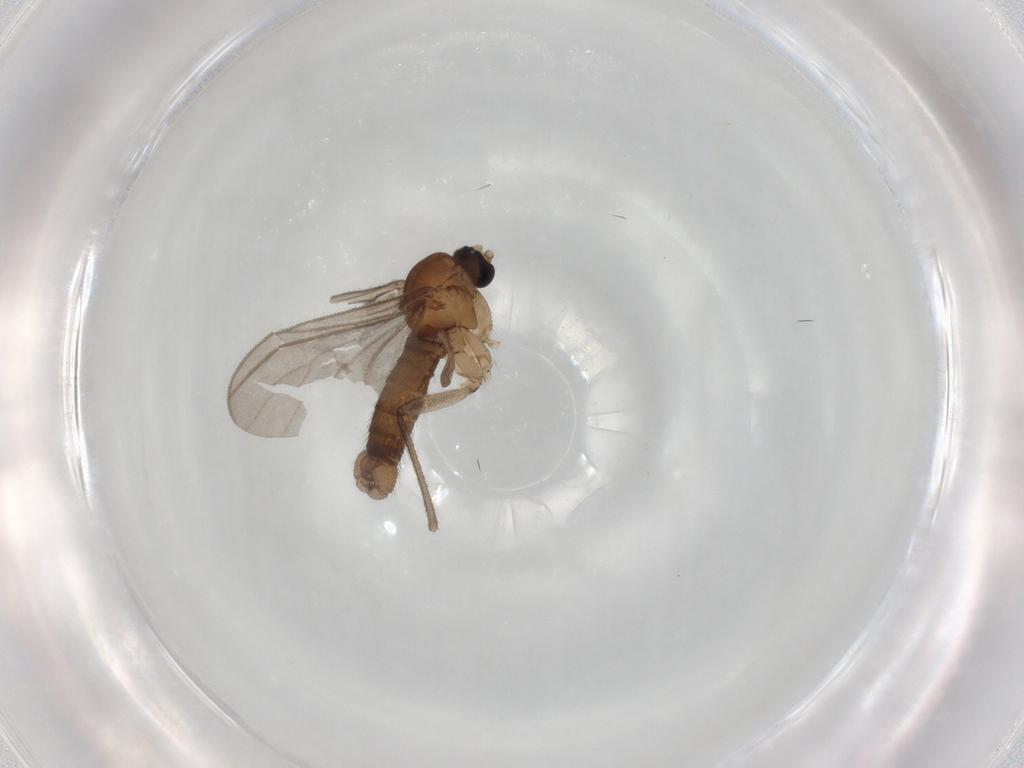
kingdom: Animalia
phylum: Arthropoda
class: Insecta
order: Diptera
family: Sciaridae
